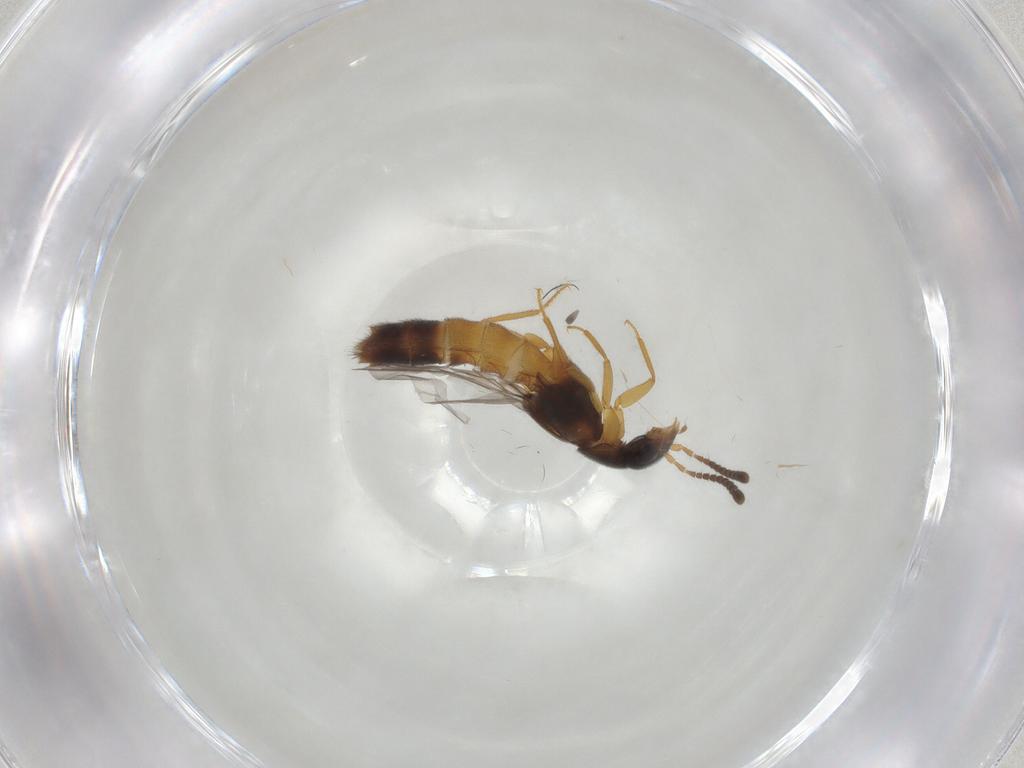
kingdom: Animalia
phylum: Arthropoda
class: Insecta
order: Coleoptera
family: Staphylinidae
